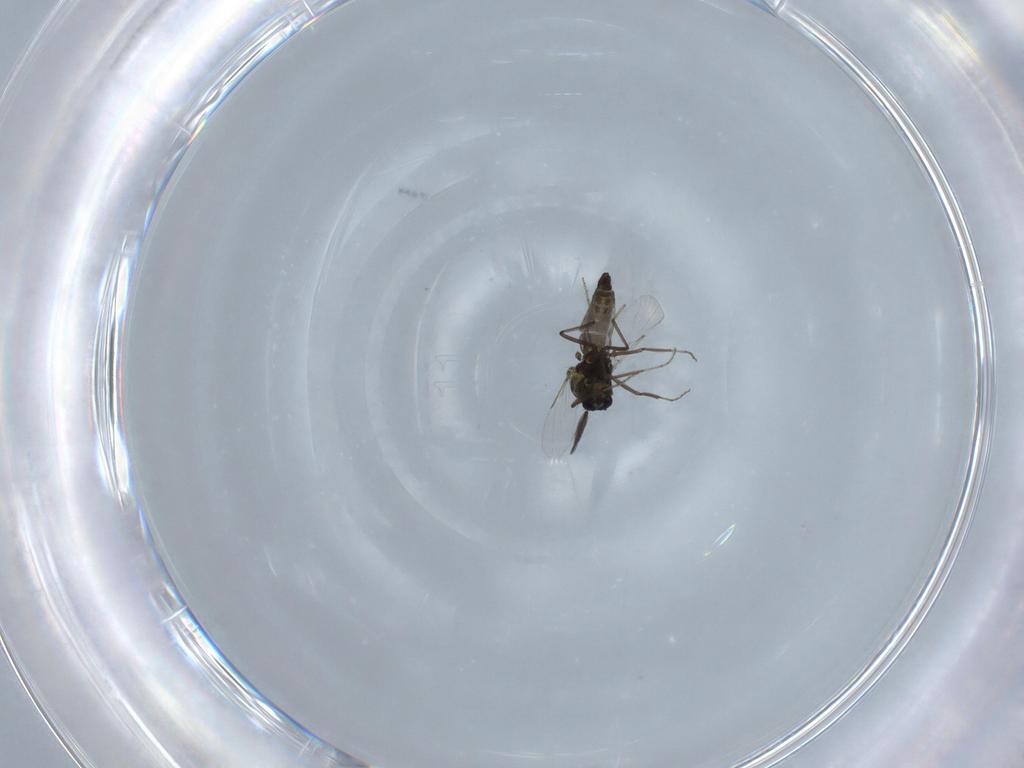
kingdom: Animalia
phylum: Arthropoda
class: Insecta
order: Diptera
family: Ceratopogonidae
